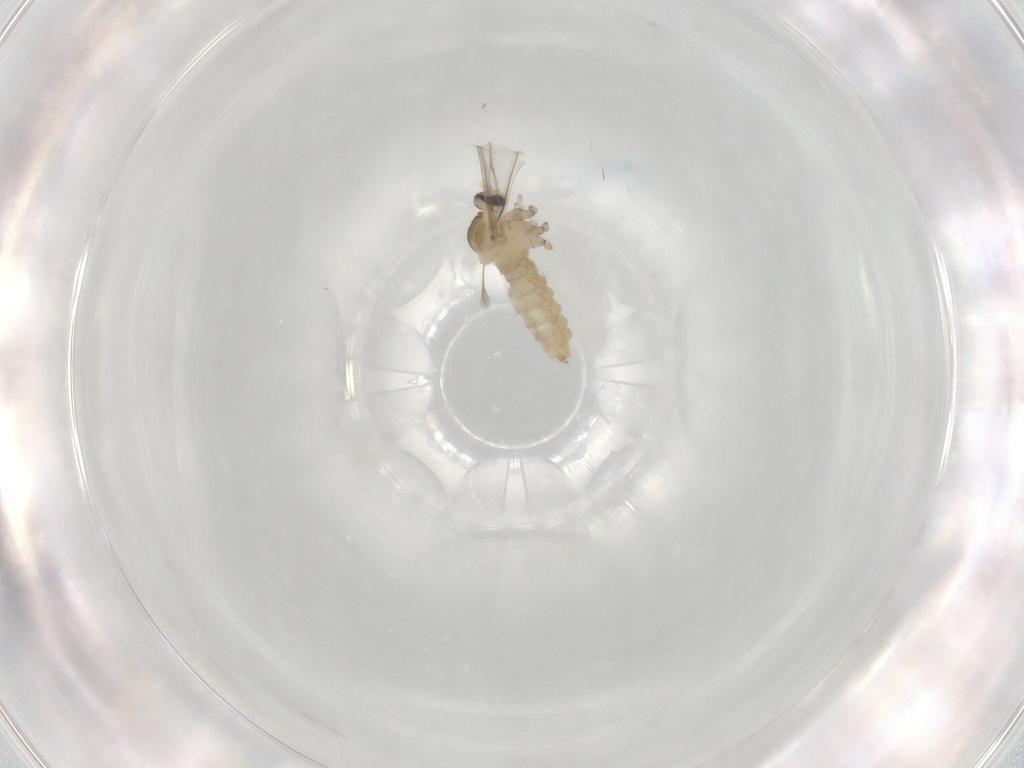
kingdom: Animalia
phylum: Arthropoda
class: Insecta
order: Diptera
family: Cecidomyiidae
